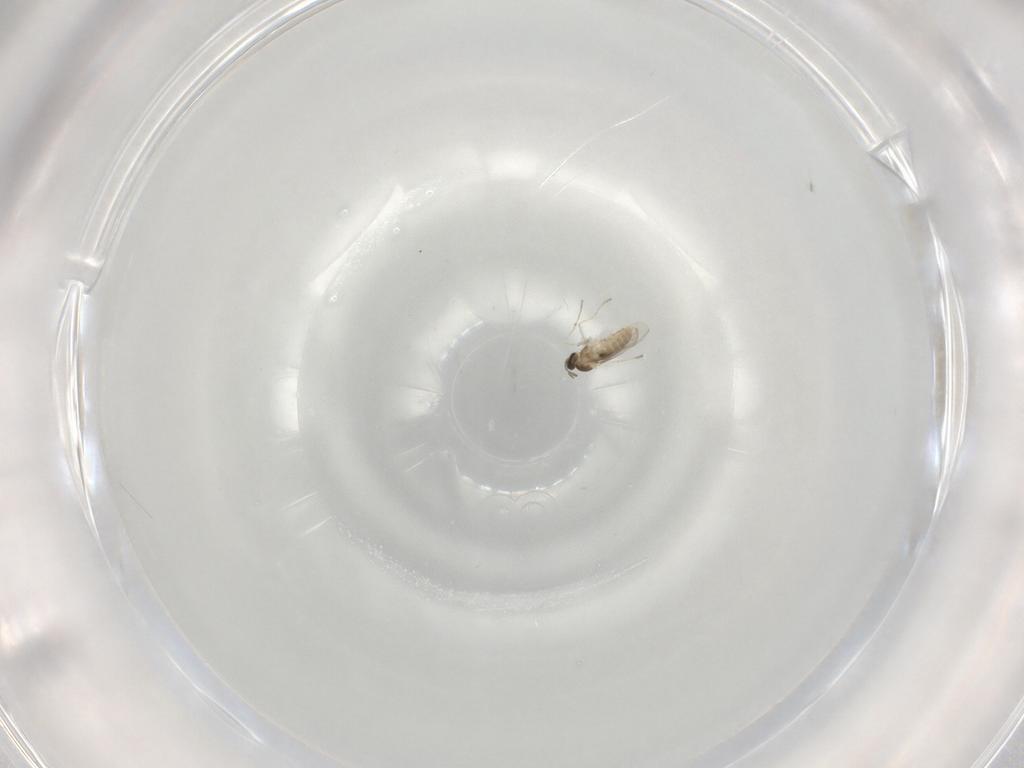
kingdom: Animalia
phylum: Arthropoda
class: Insecta
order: Diptera
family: Cecidomyiidae
